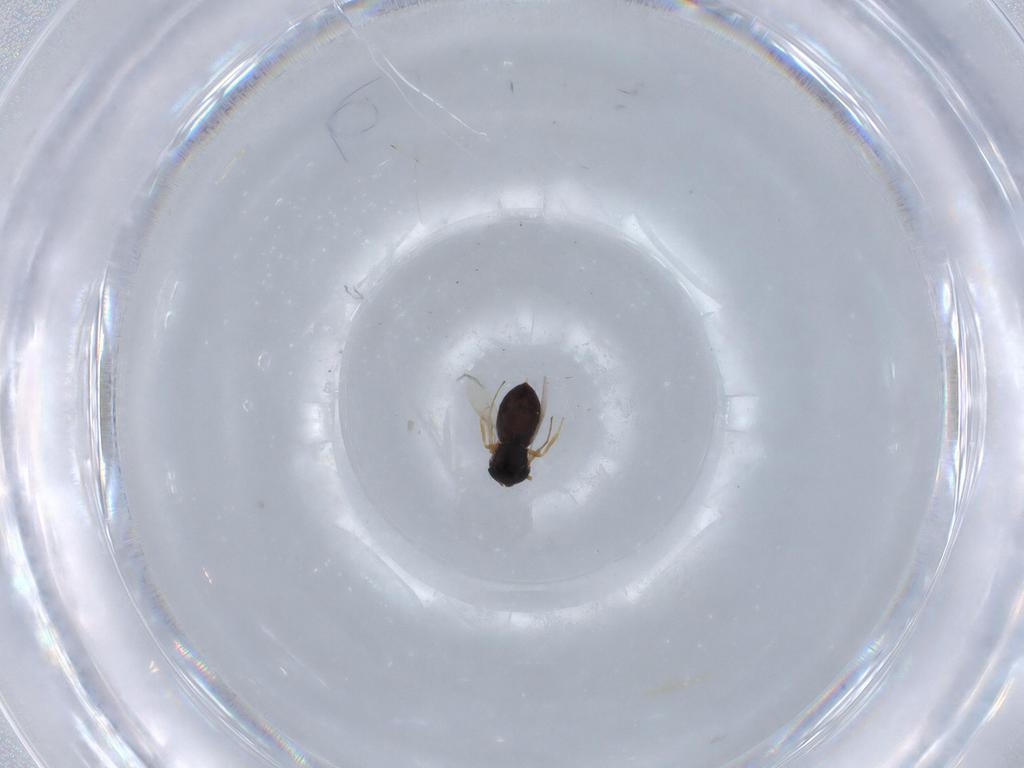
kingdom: Animalia
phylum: Arthropoda
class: Insecta
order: Hymenoptera
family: Scelionidae
